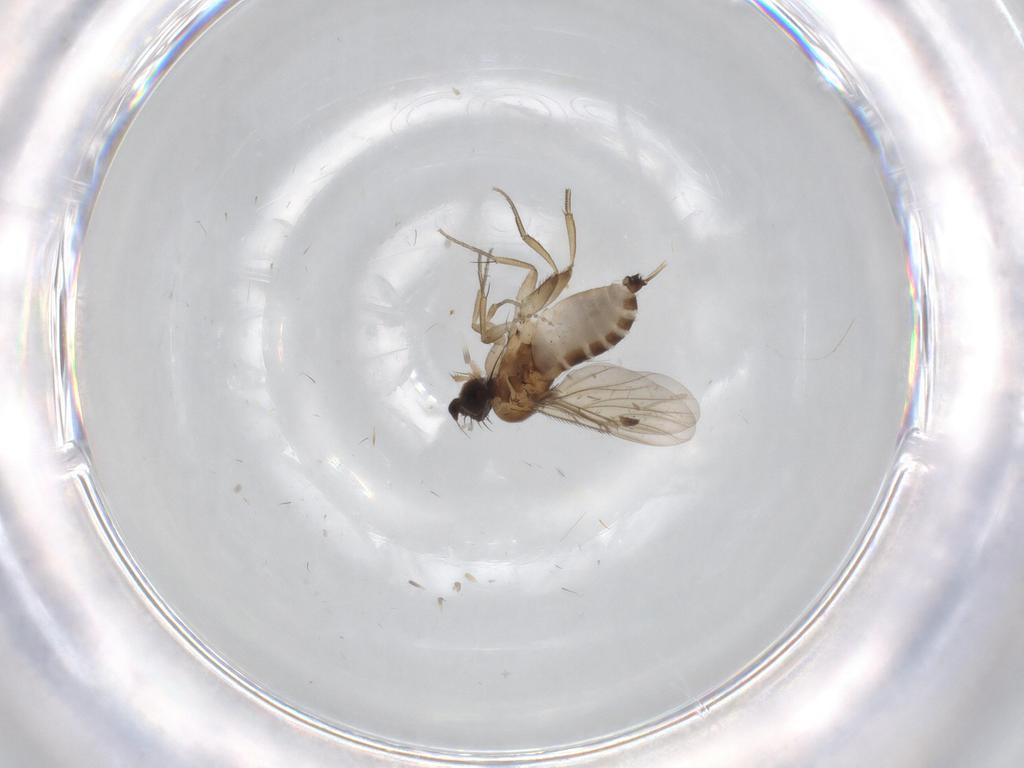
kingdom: Animalia
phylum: Arthropoda
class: Insecta
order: Diptera
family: Phoridae
